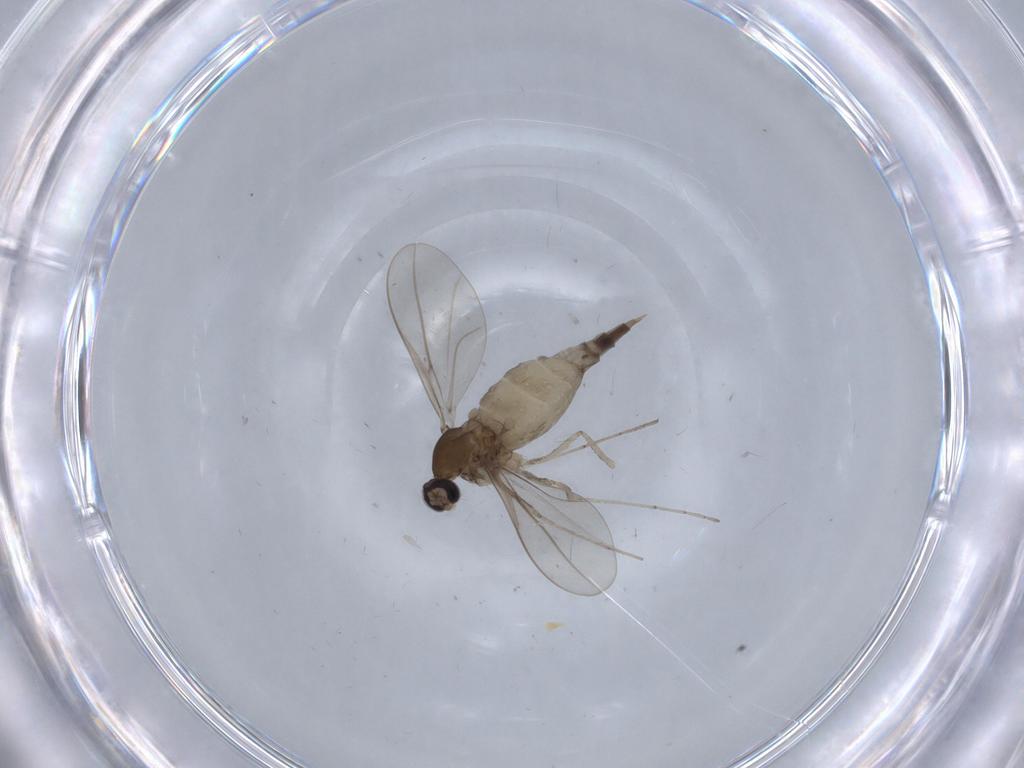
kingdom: Animalia
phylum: Arthropoda
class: Insecta
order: Diptera
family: Cecidomyiidae
